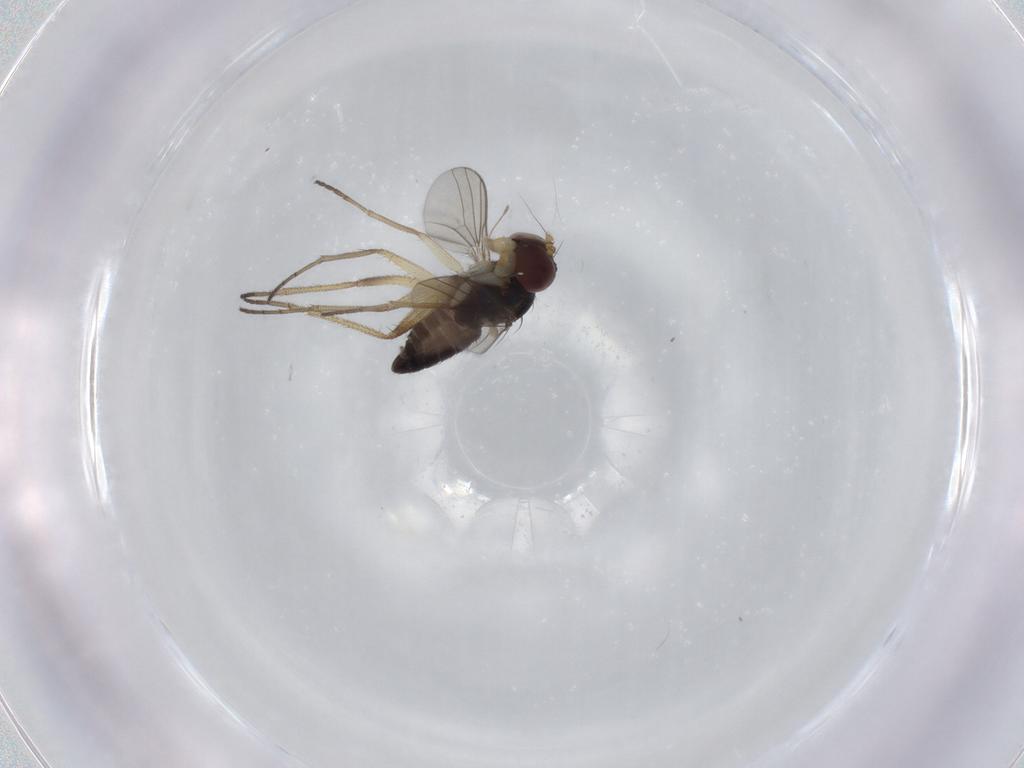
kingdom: Animalia
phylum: Arthropoda
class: Insecta
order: Diptera
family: Dolichopodidae
